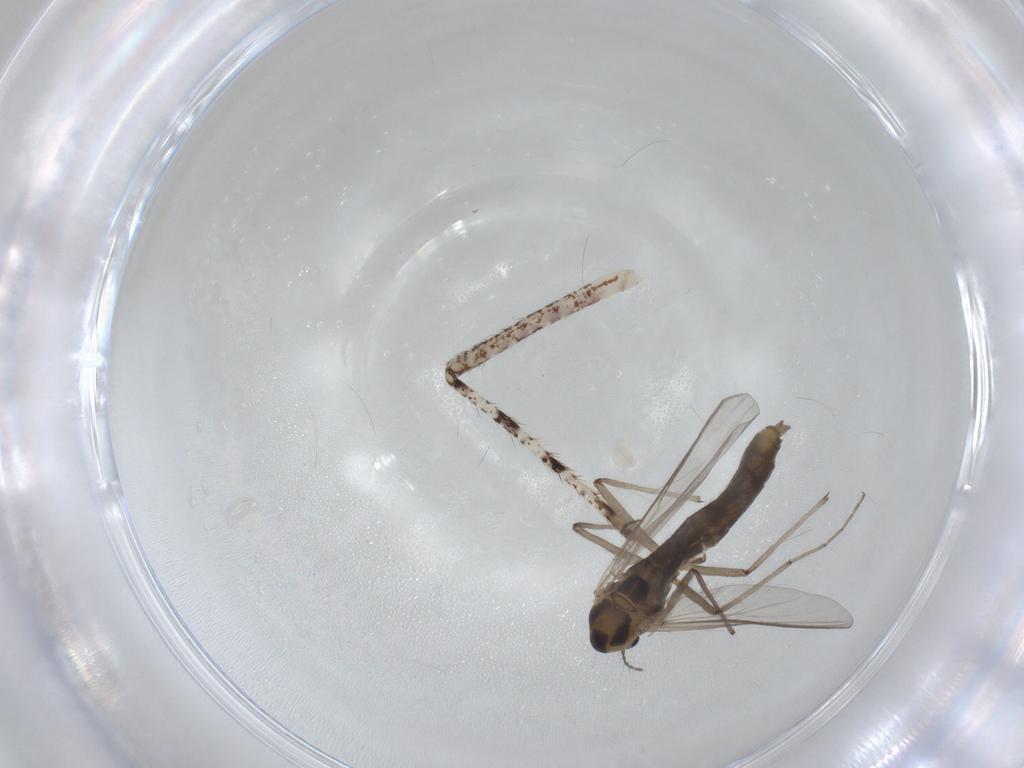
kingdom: Animalia
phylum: Arthropoda
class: Insecta
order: Diptera
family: Chironomidae
